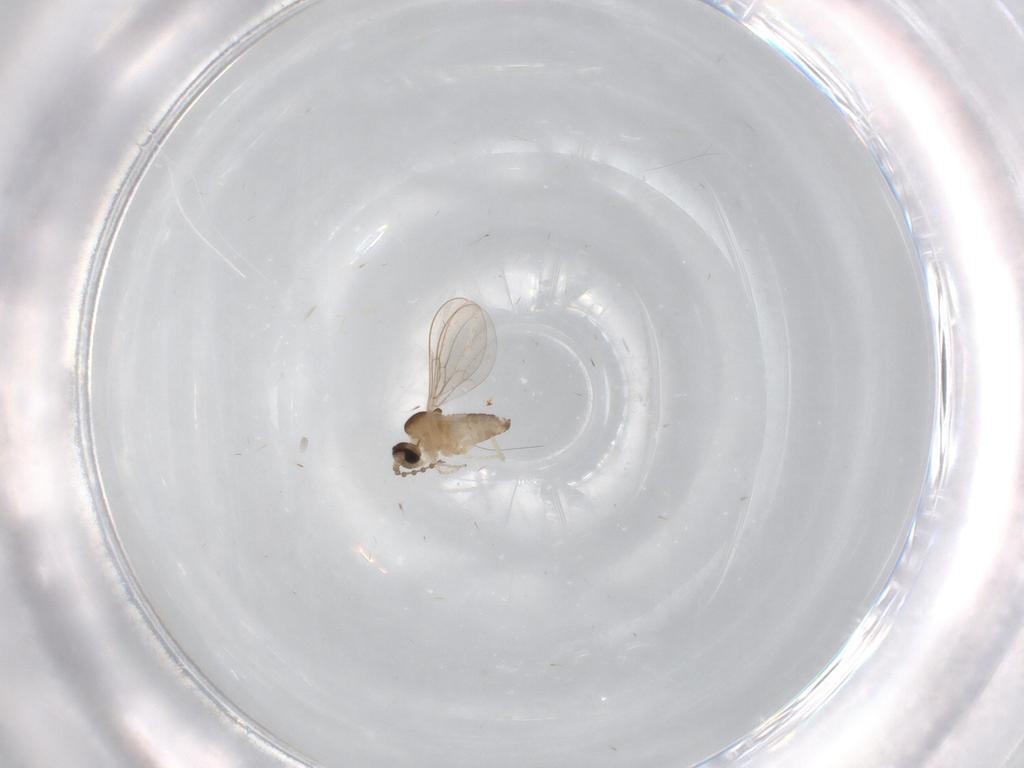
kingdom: Animalia
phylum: Arthropoda
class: Insecta
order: Diptera
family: Cecidomyiidae
